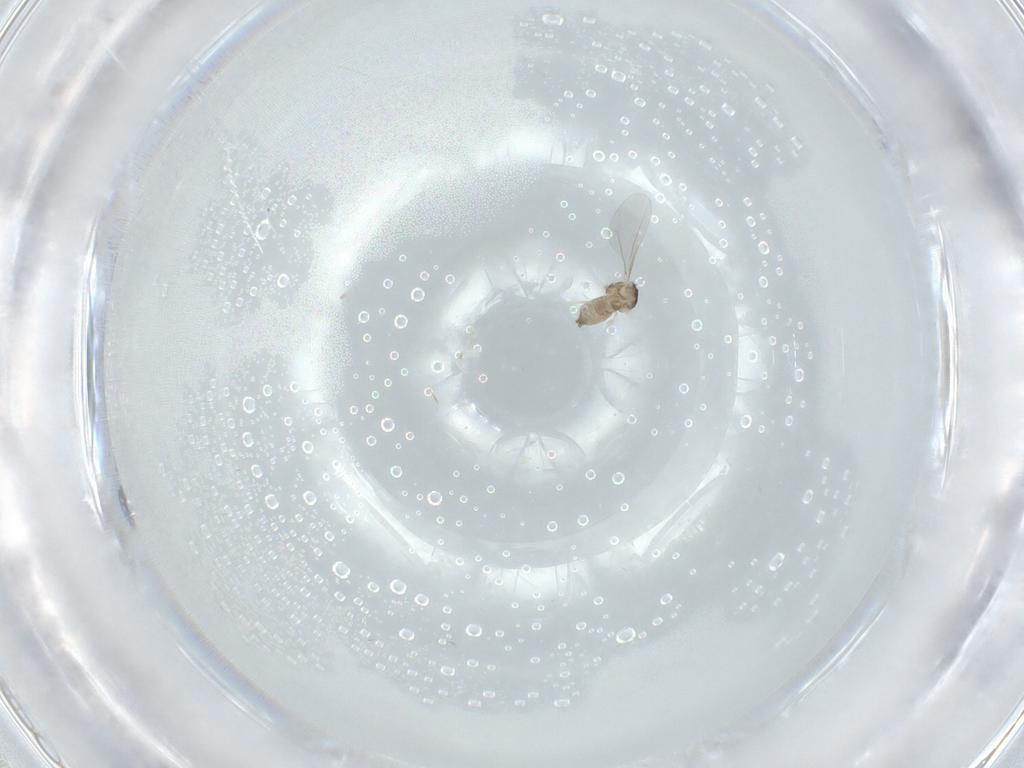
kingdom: Animalia
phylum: Arthropoda
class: Insecta
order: Diptera
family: Cecidomyiidae
